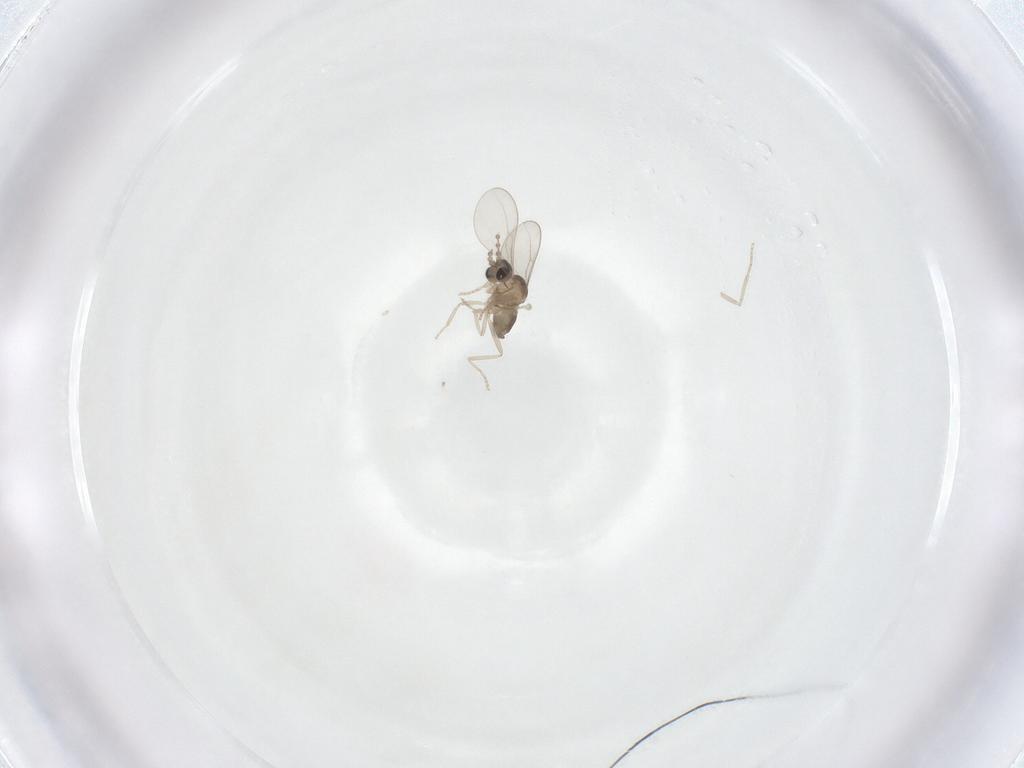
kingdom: Animalia
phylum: Arthropoda
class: Insecta
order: Diptera
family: Cecidomyiidae
